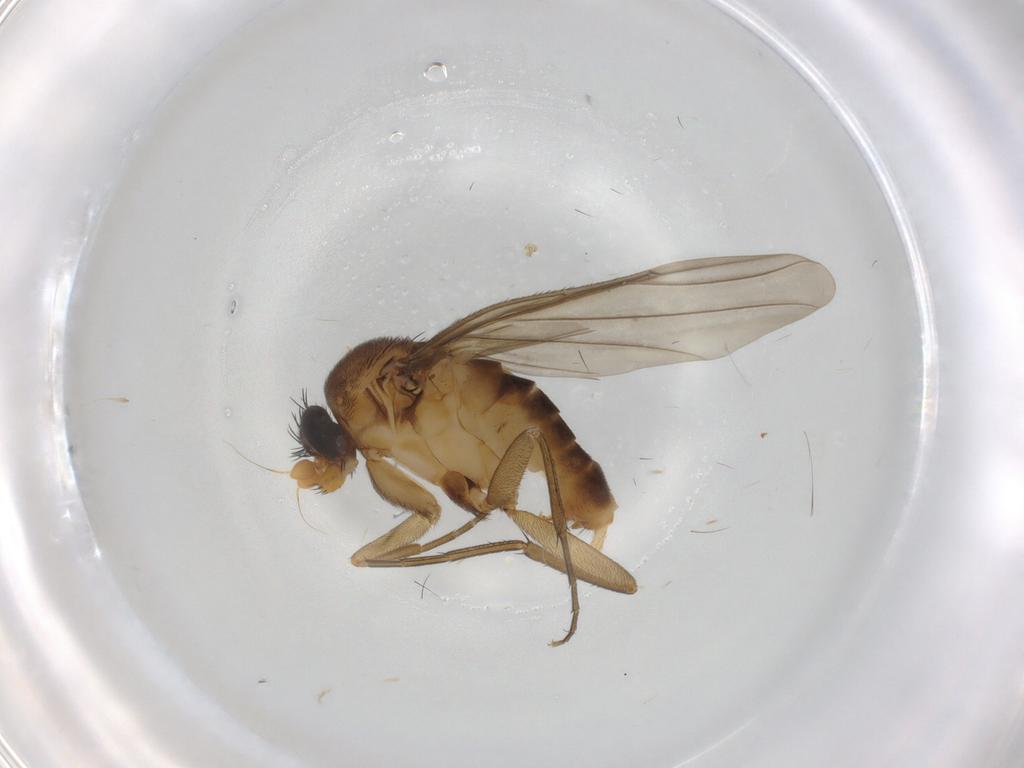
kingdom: Animalia
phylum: Arthropoda
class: Insecta
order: Diptera
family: Phoridae
